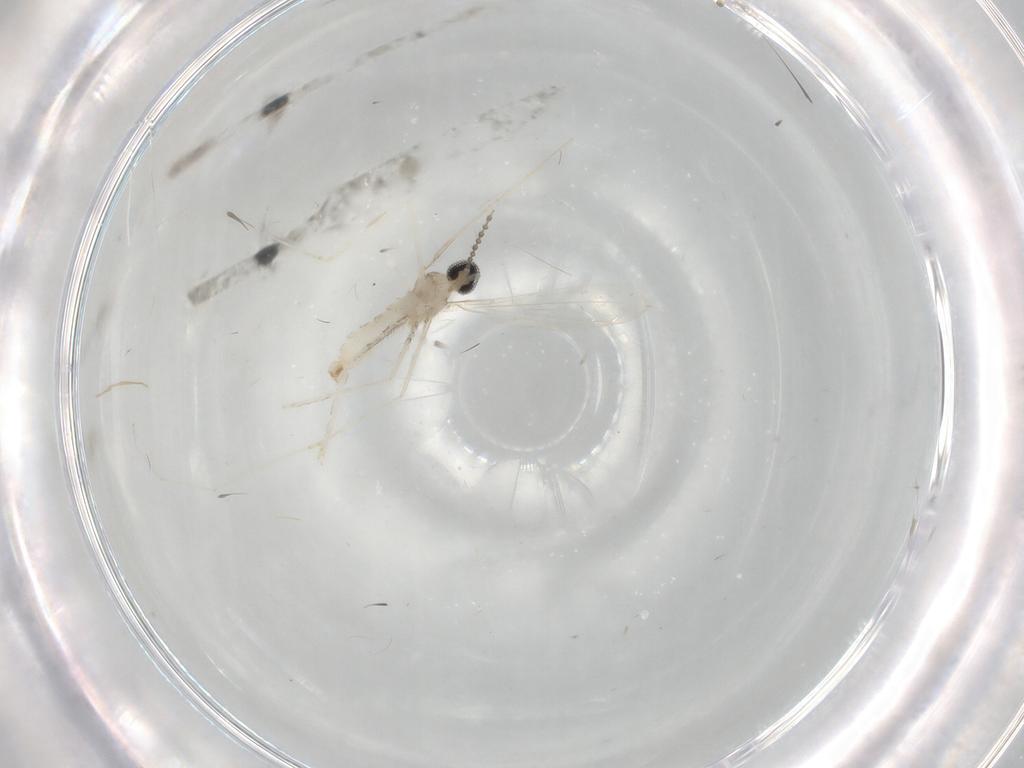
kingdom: Animalia
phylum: Arthropoda
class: Insecta
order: Diptera
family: Cecidomyiidae
